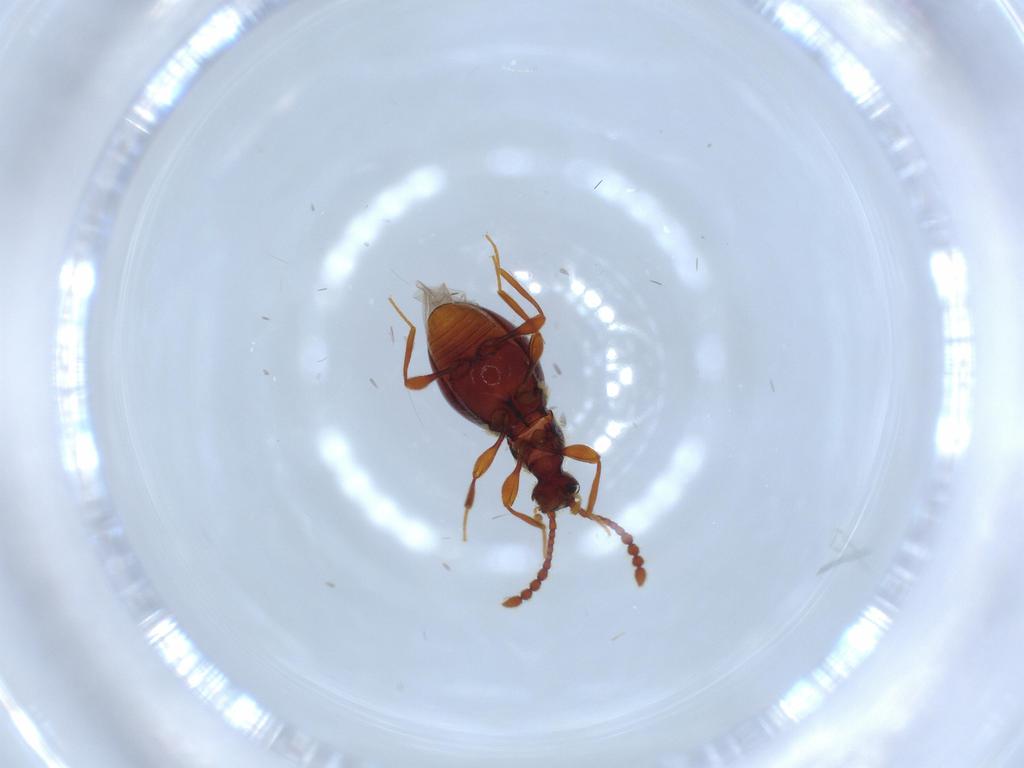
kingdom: Animalia
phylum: Arthropoda
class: Insecta
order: Coleoptera
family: Staphylinidae
